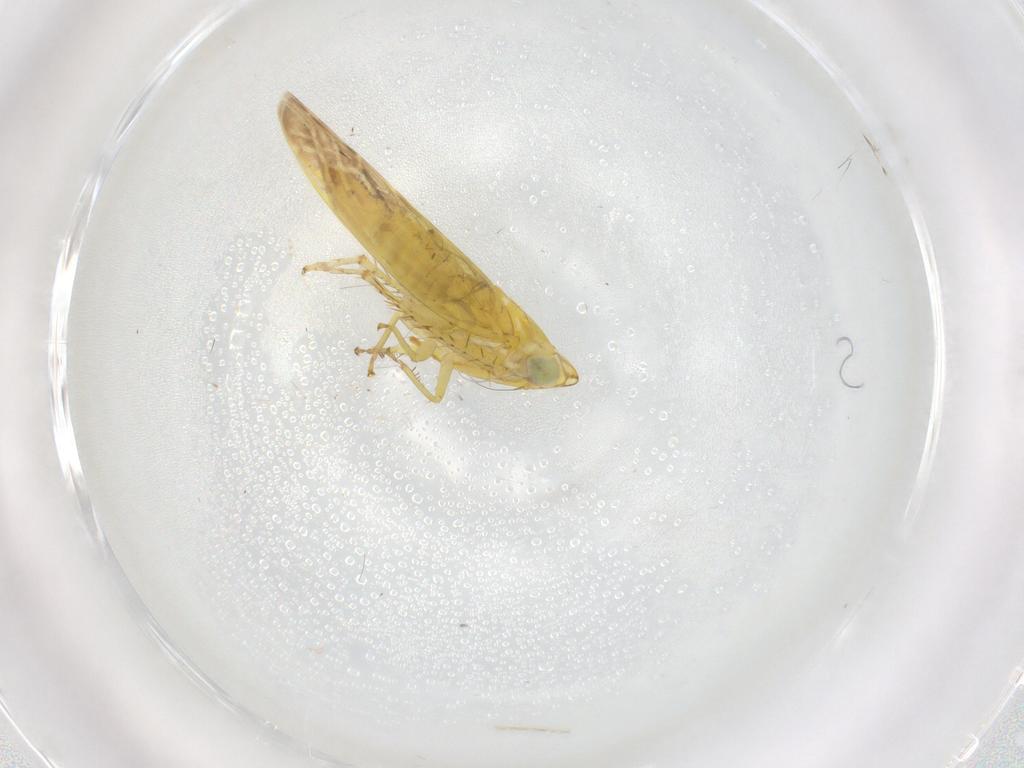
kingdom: Animalia
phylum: Arthropoda
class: Insecta
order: Hemiptera
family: Cicadellidae
